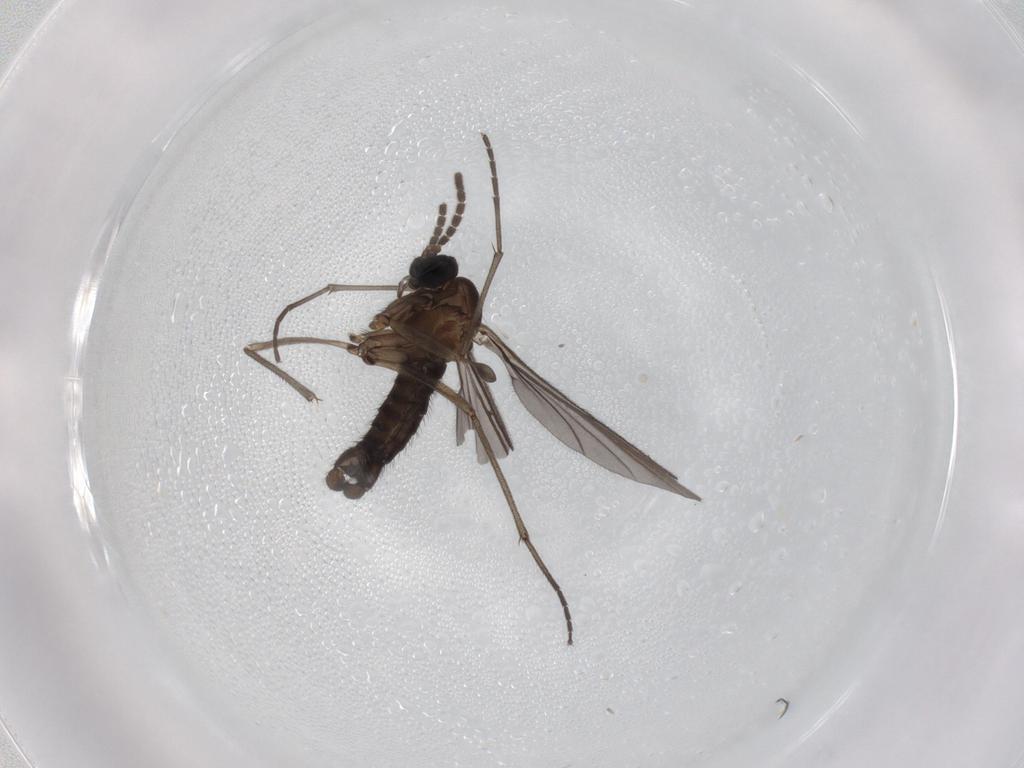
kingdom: Animalia
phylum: Arthropoda
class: Insecta
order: Diptera
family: Sciaridae
